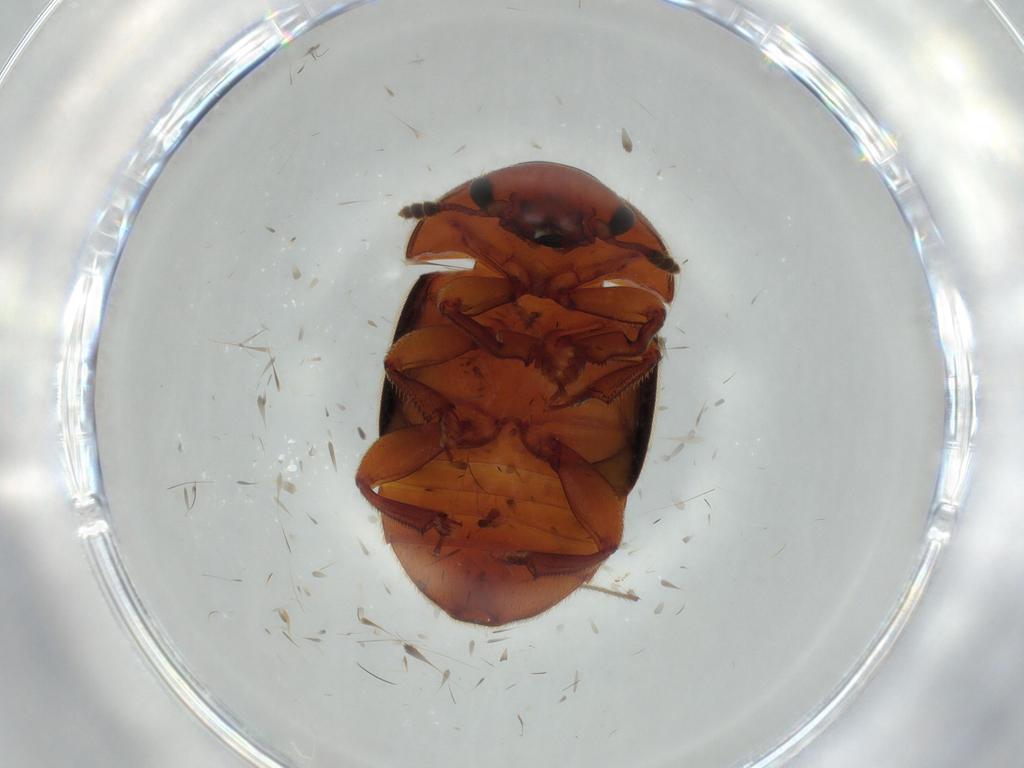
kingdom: Animalia
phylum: Arthropoda
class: Insecta
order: Coleoptera
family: Nitidulidae
